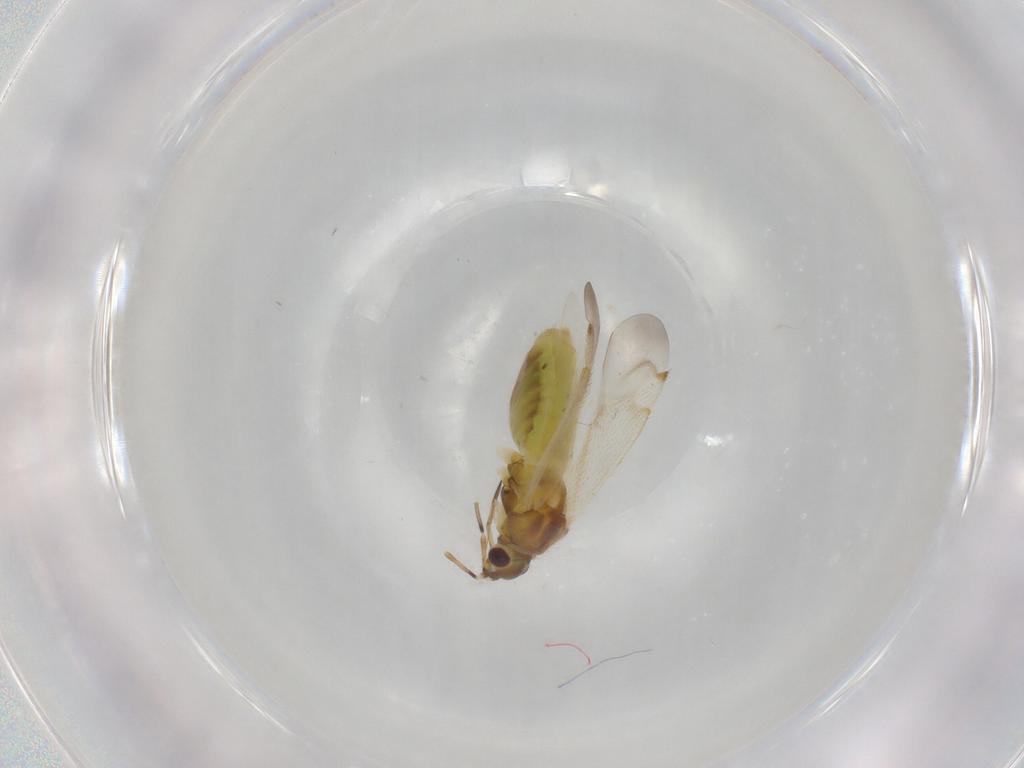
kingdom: Animalia
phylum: Arthropoda
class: Insecta
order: Hemiptera
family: Miridae
